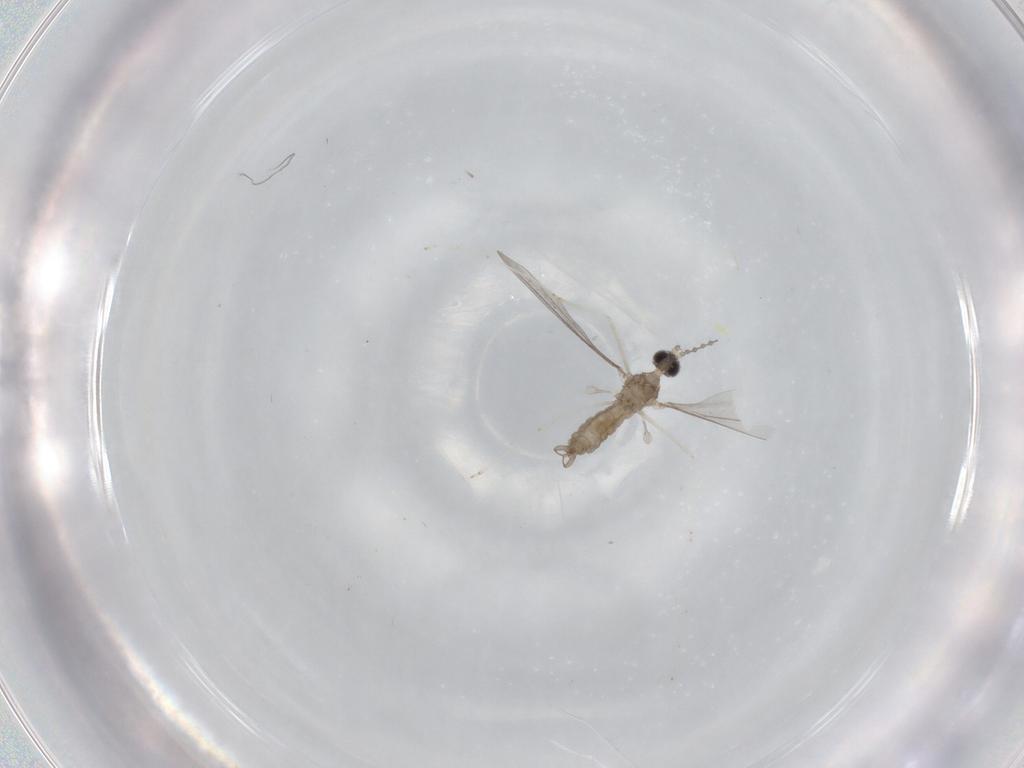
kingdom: Animalia
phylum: Arthropoda
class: Insecta
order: Diptera
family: Cecidomyiidae
